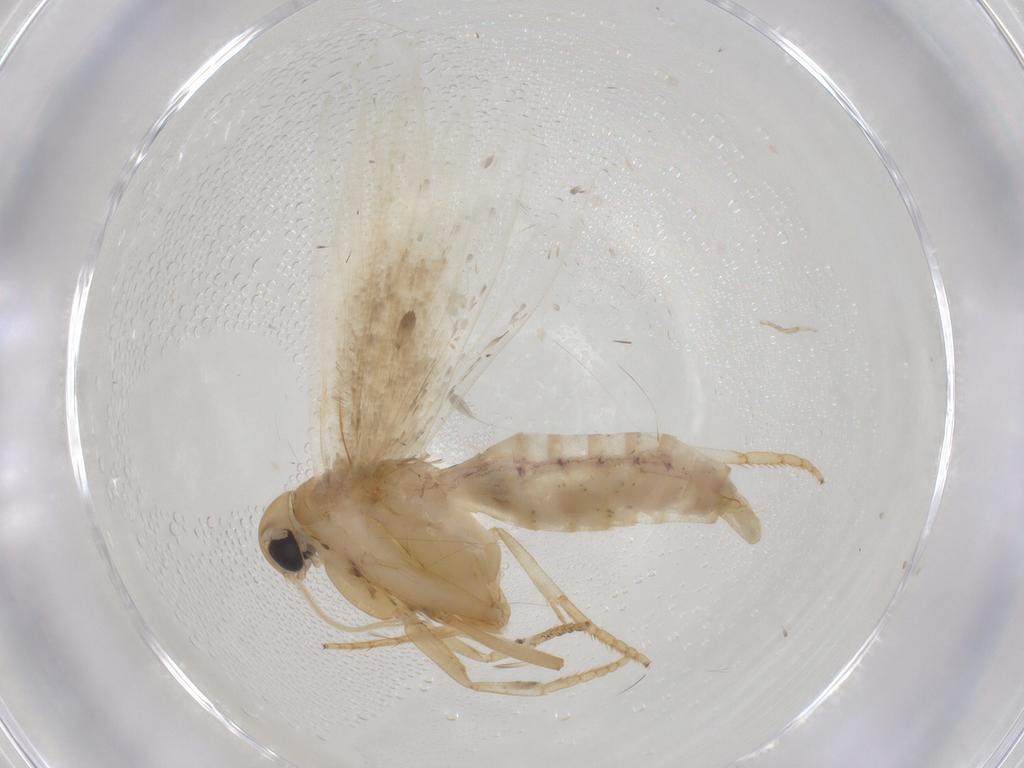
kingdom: Animalia
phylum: Arthropoda
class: Insecta
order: Lepidoptera
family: Gelechiidae
